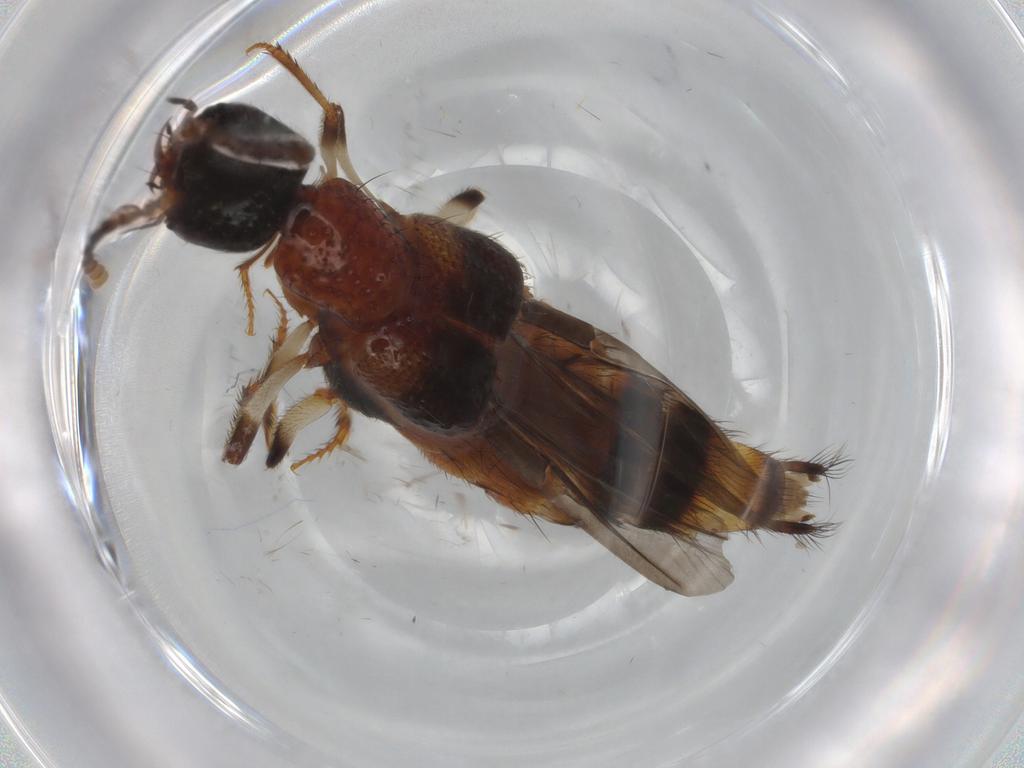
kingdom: Animalia
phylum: Arthropoda
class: Insecta
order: Coleoptera
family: Staphylinidae
